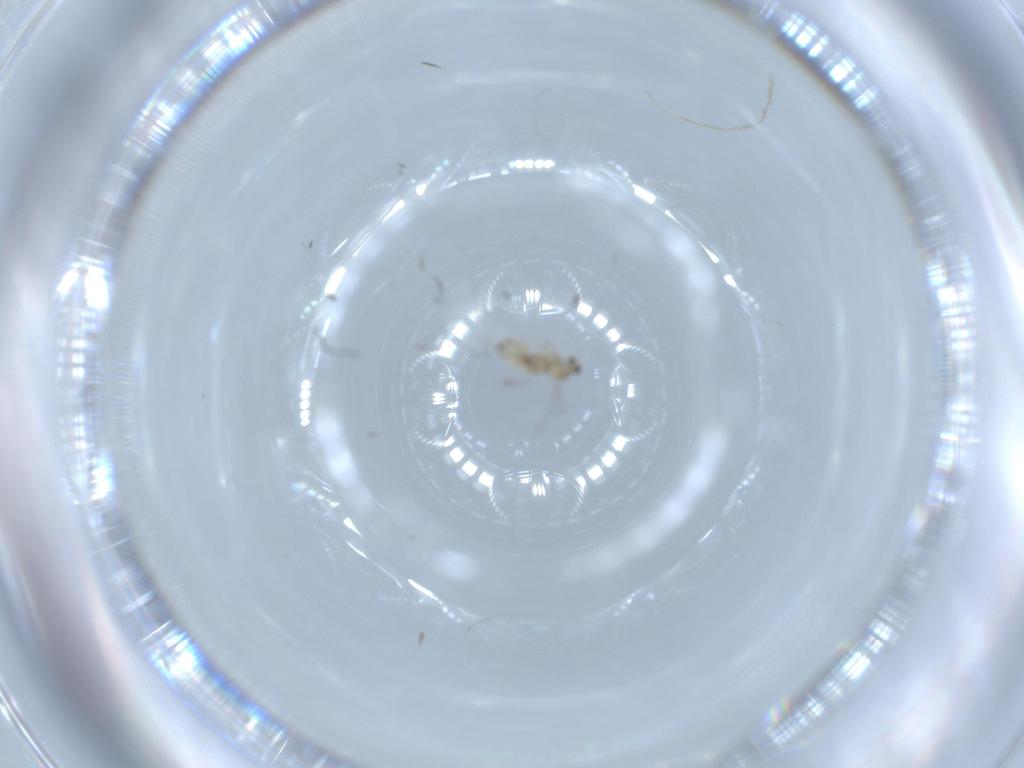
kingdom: Animalia
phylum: Arthropoda
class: Insecta
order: Diptera
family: Cecidomyiidae
